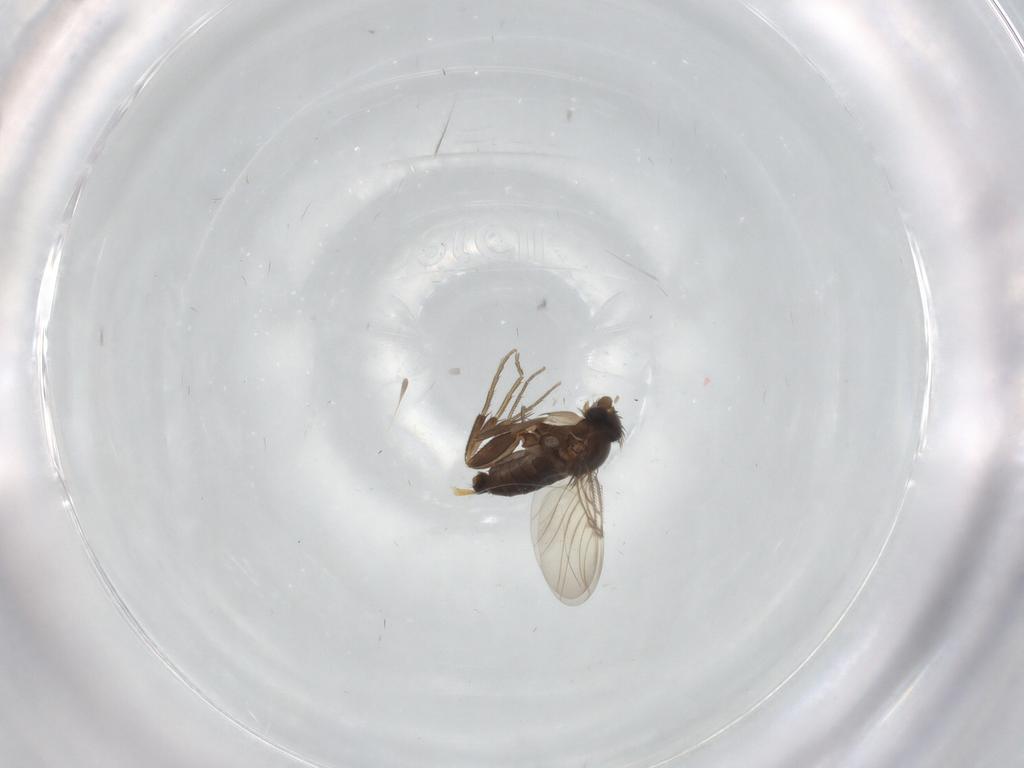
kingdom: Animalia
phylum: Arthropoda
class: Insecta
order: Diptera
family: Phoridae
